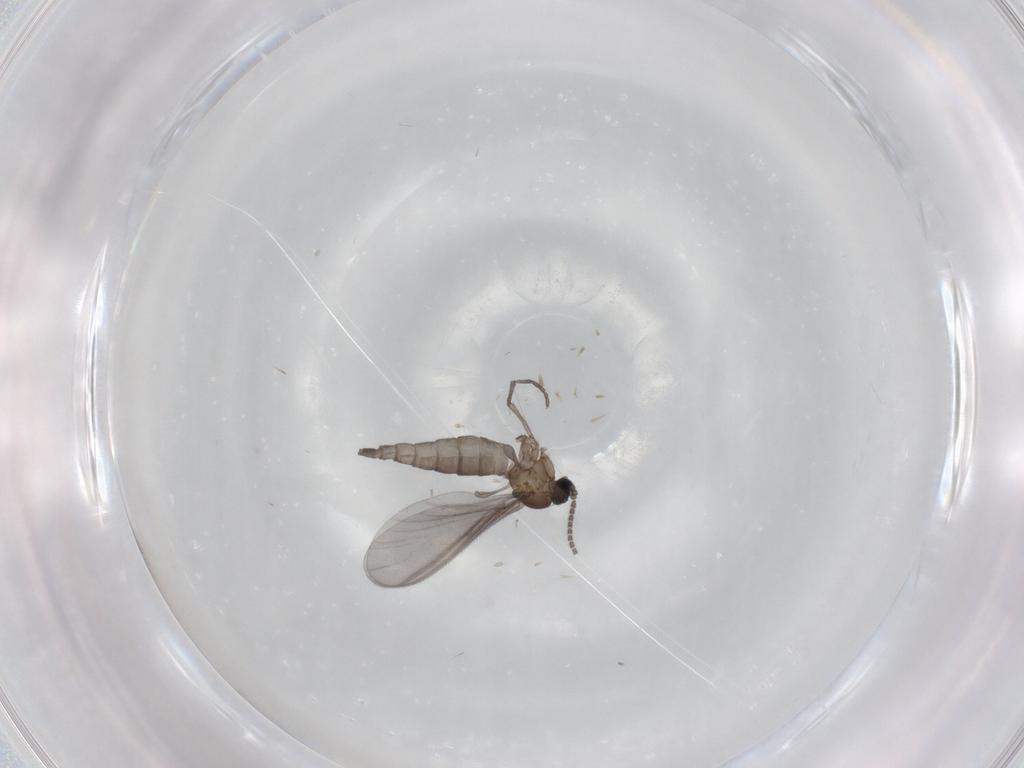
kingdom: Animalia
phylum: Arthropoda
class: Insecta
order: Diptera
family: Sciaridae
